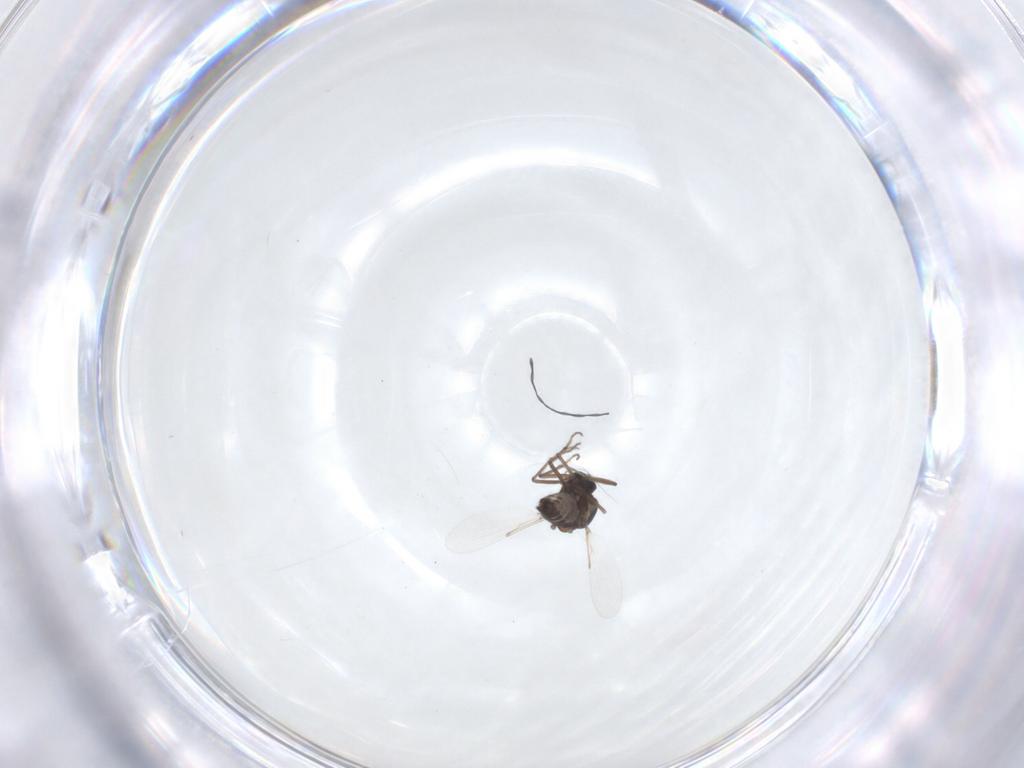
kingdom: Animalia
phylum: Arthropoda
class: Insecta
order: Diptera
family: Ceratopogonidae
